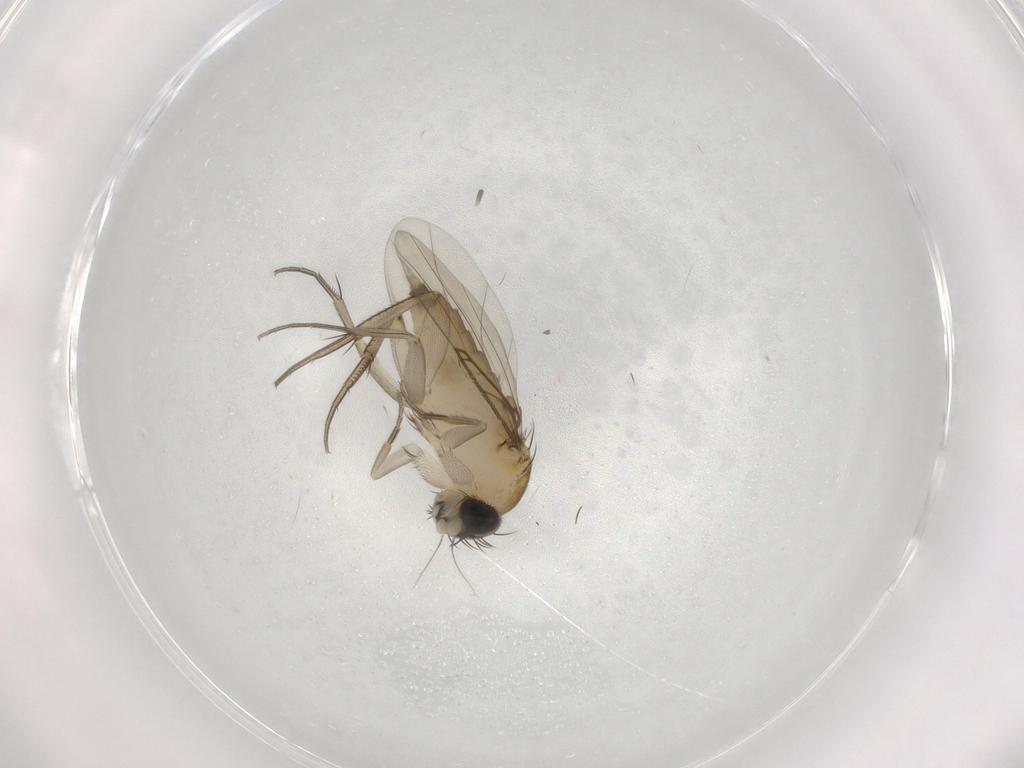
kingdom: Animalia
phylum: Arthropoda
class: Insecta
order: Diptera
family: Phoridae
